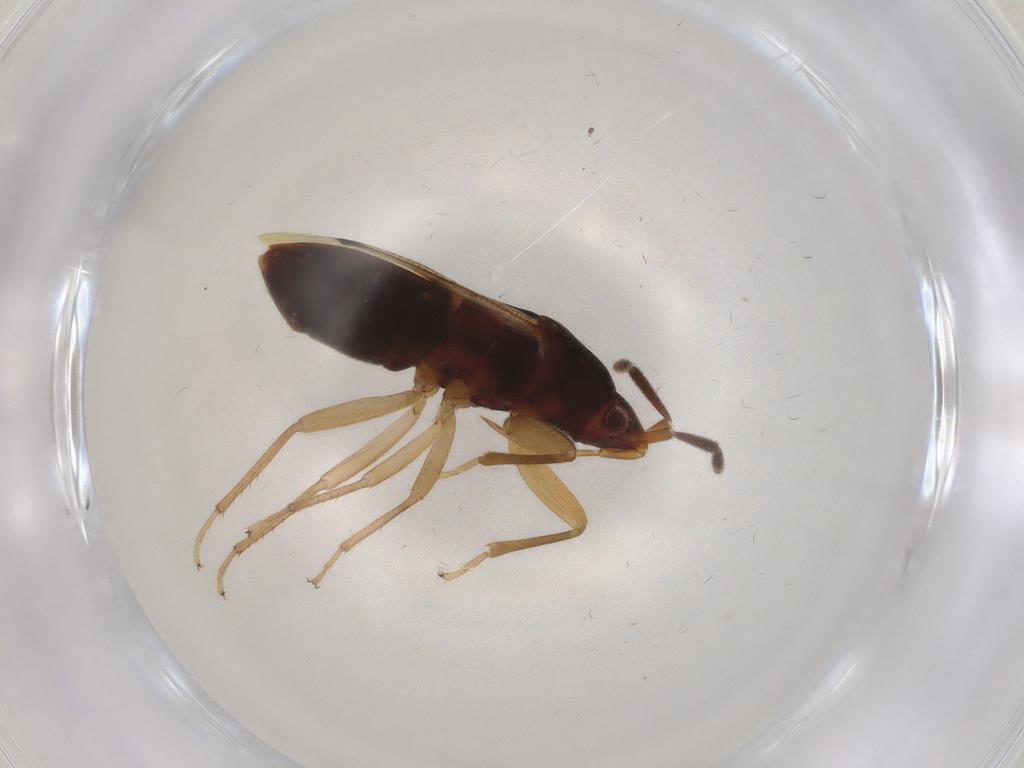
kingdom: Animalia
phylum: Arthropoda
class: Insecta
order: Hemiptera
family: Rhyparochromidae
